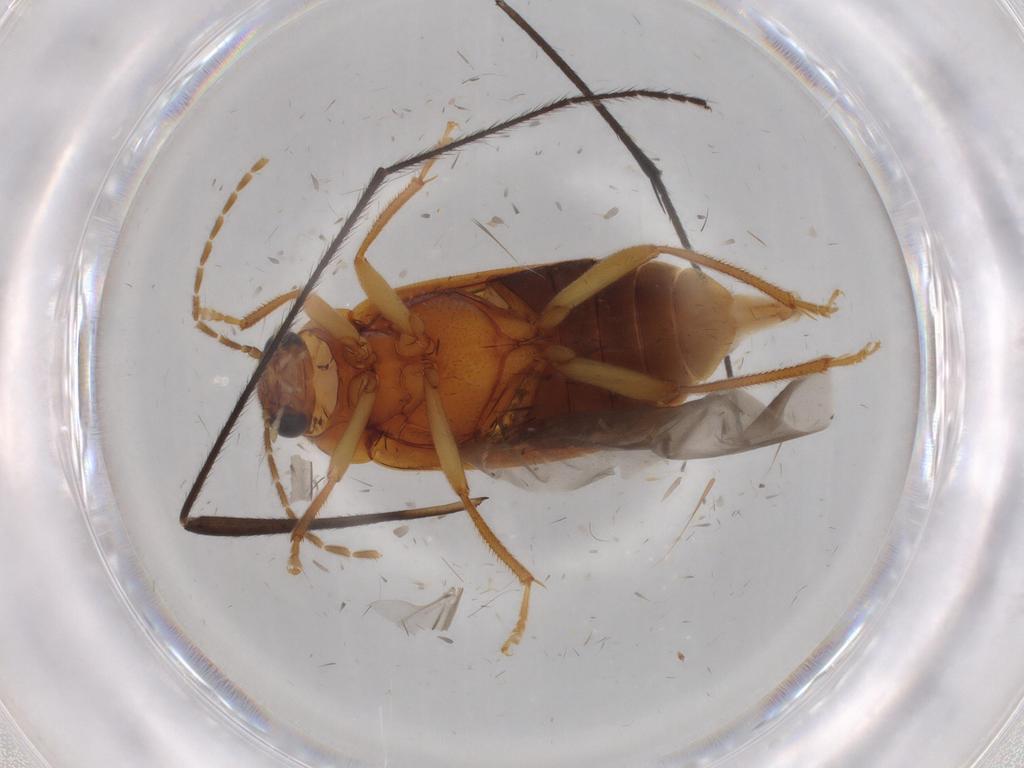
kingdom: Animalia
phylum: Arthropoda
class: Insecta
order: Coleoptera
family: Ptilodactylidae
